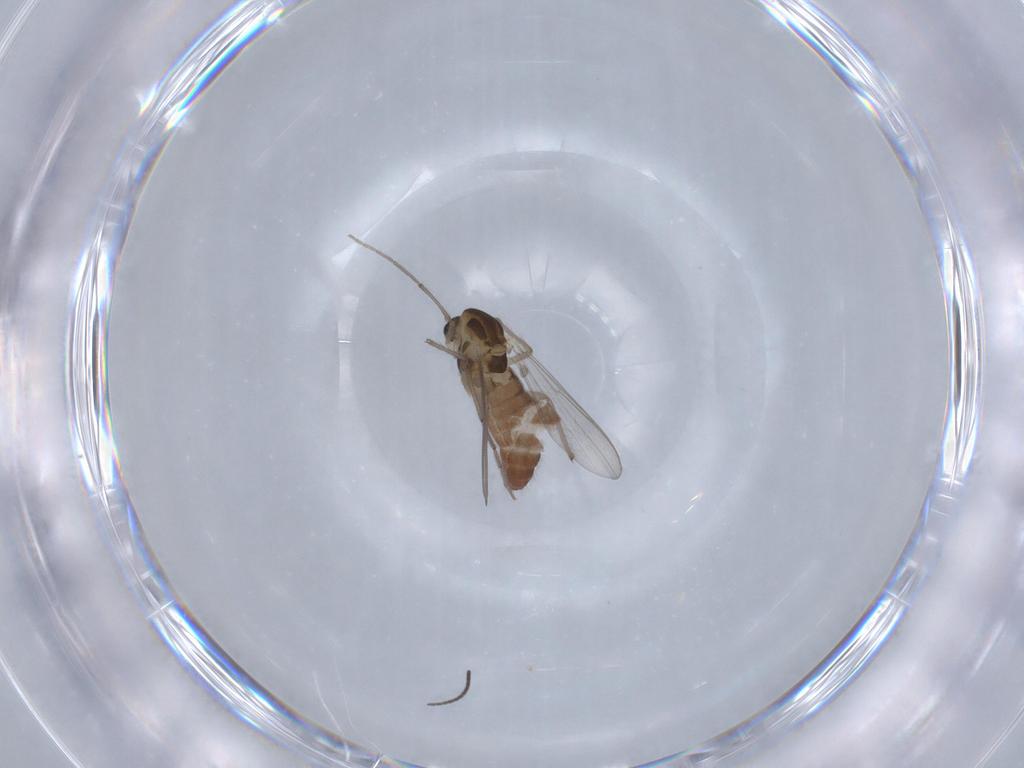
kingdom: Animalia
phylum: Arthropoda
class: Insecta
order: Diptera
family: Sciaridae
